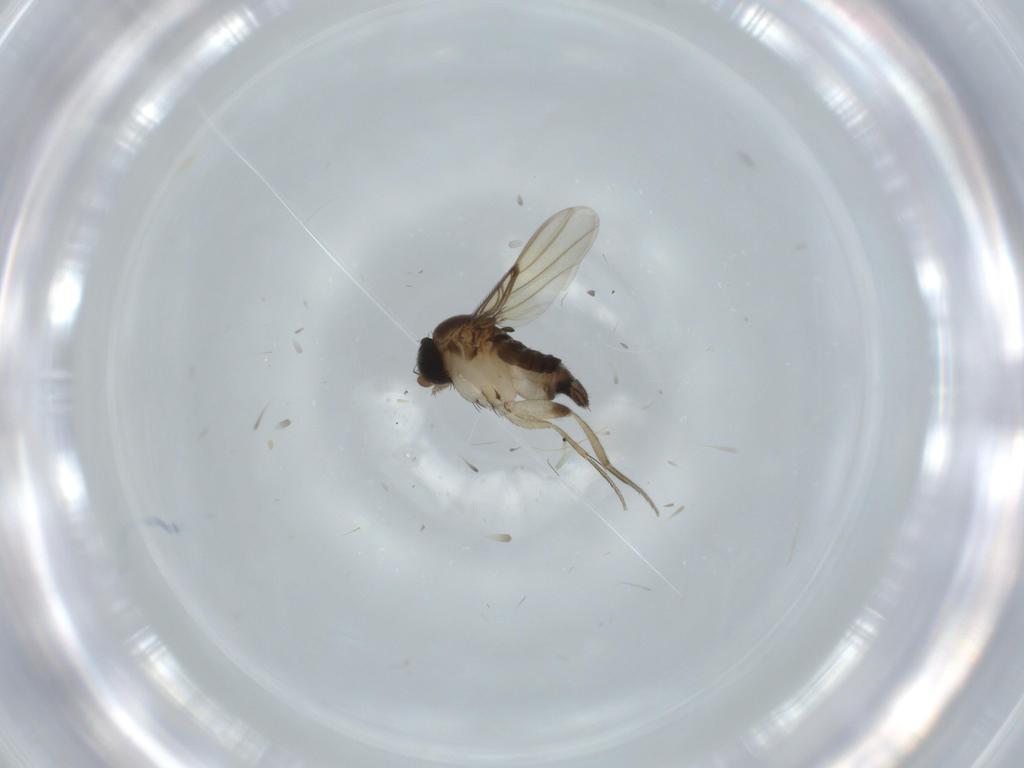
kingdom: Animalia
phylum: Arthropoda
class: Insecta
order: Diptera
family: Phoridae
